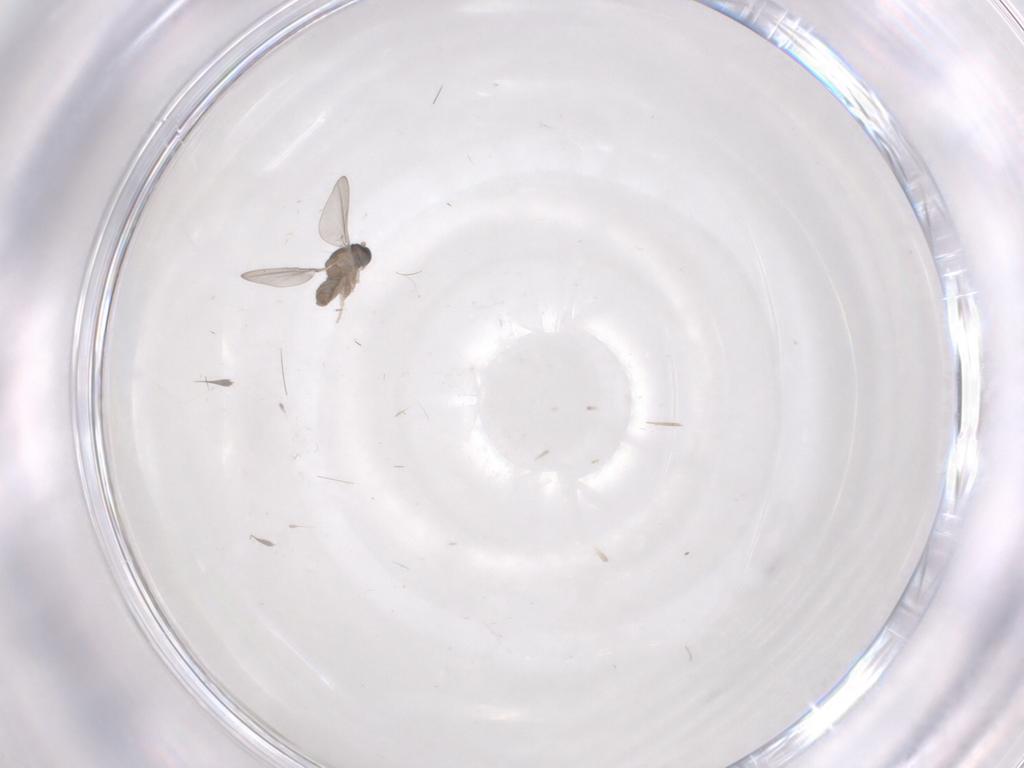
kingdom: Animalia
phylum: Arthropoda
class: Insecta
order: Diptera
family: Cecidomyiidae
